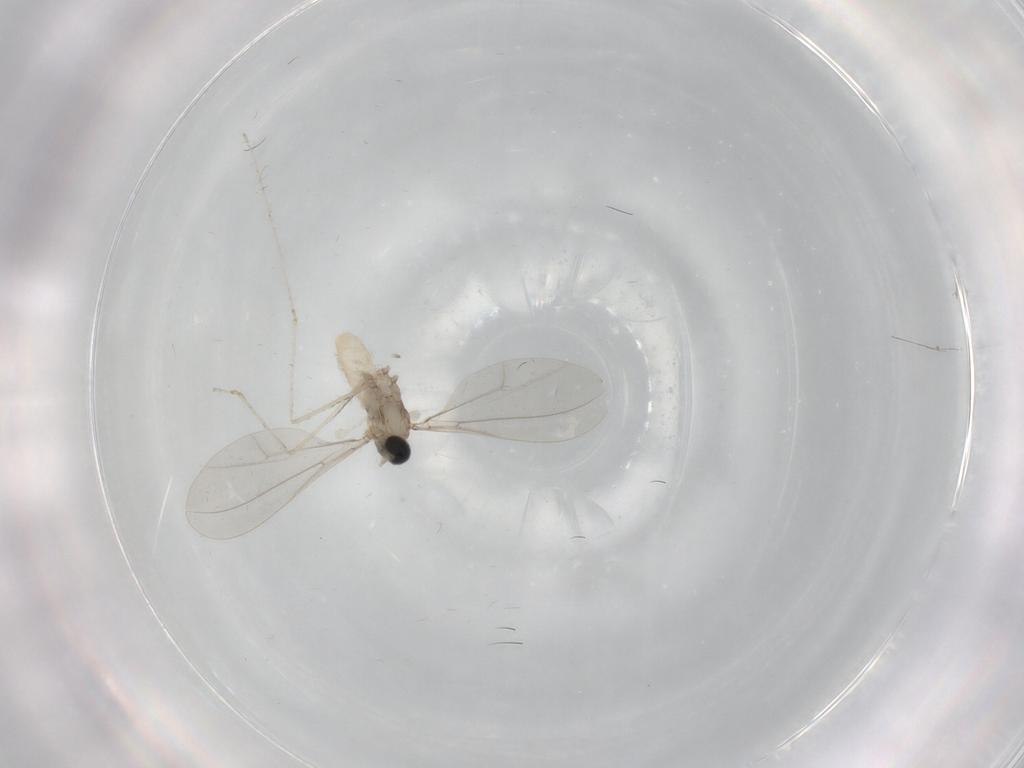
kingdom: Animalia
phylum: Arthropoda
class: Insecta
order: Diptera
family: Cecidomyiidae
